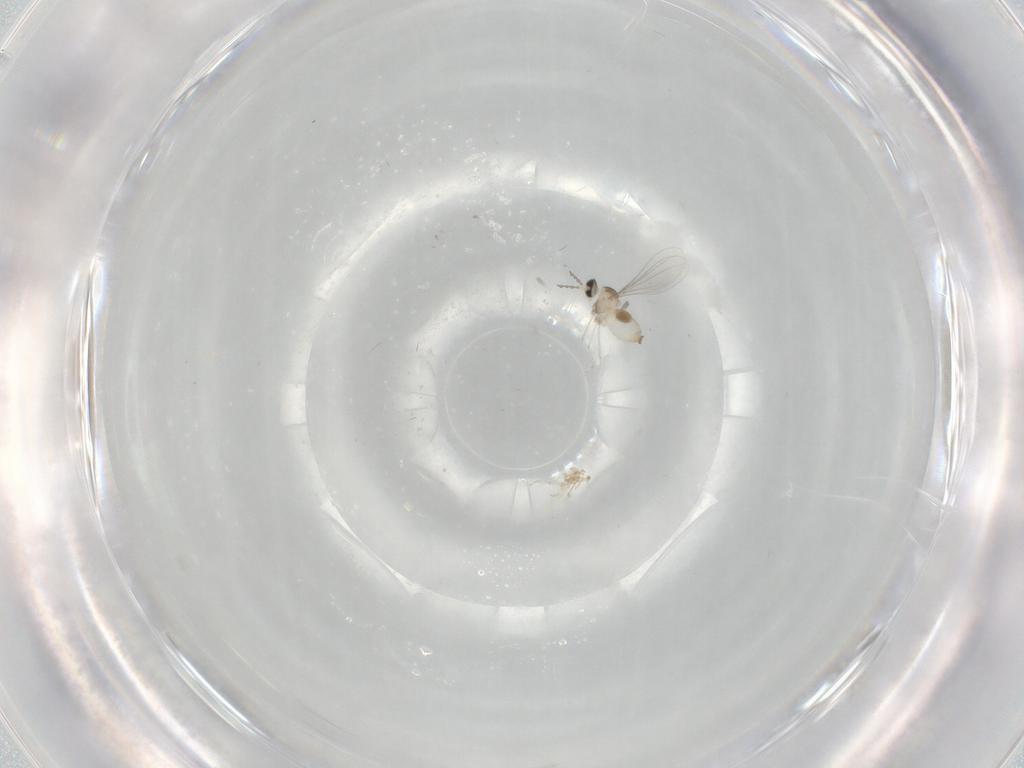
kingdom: Animalia
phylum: Arthropoda
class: Insecta
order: Diptera
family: Cecidomyiidae
